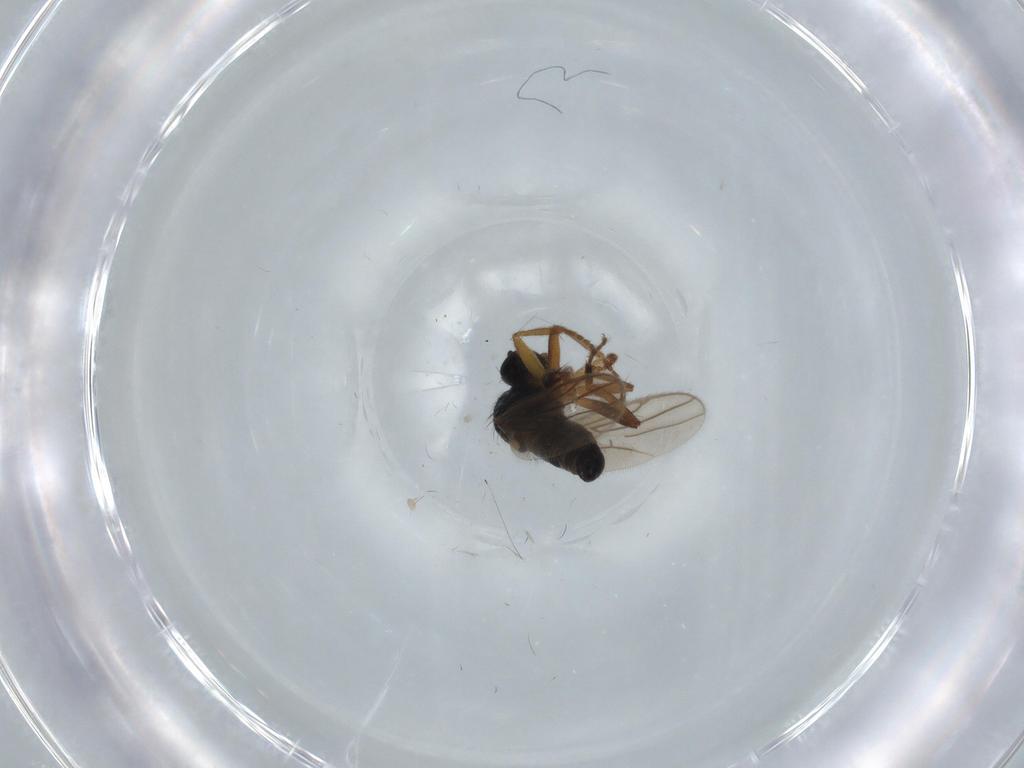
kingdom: Animalia
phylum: Arthropoda
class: Insecta
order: Diptera
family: Hybotidae
